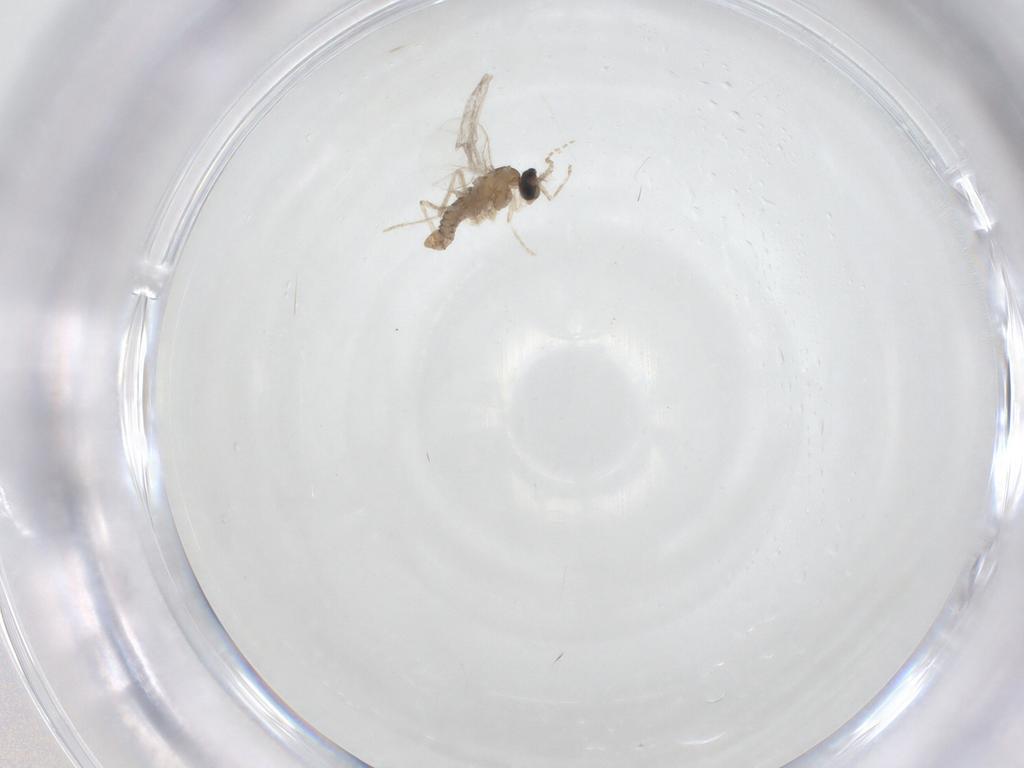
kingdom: Animalia
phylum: Arthropoda
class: Insecta
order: Diptera
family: Cecidomyiidae
